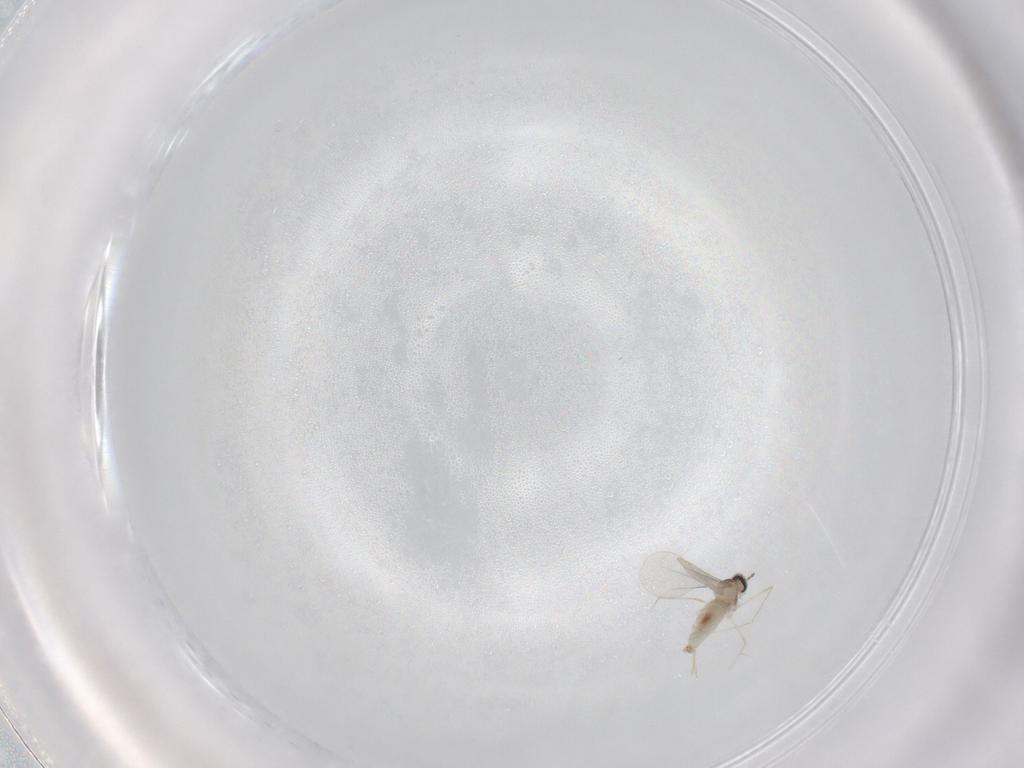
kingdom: Animalia
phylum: Arthropoda
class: Insecta
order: Diptera
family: Cecidomyiidae
